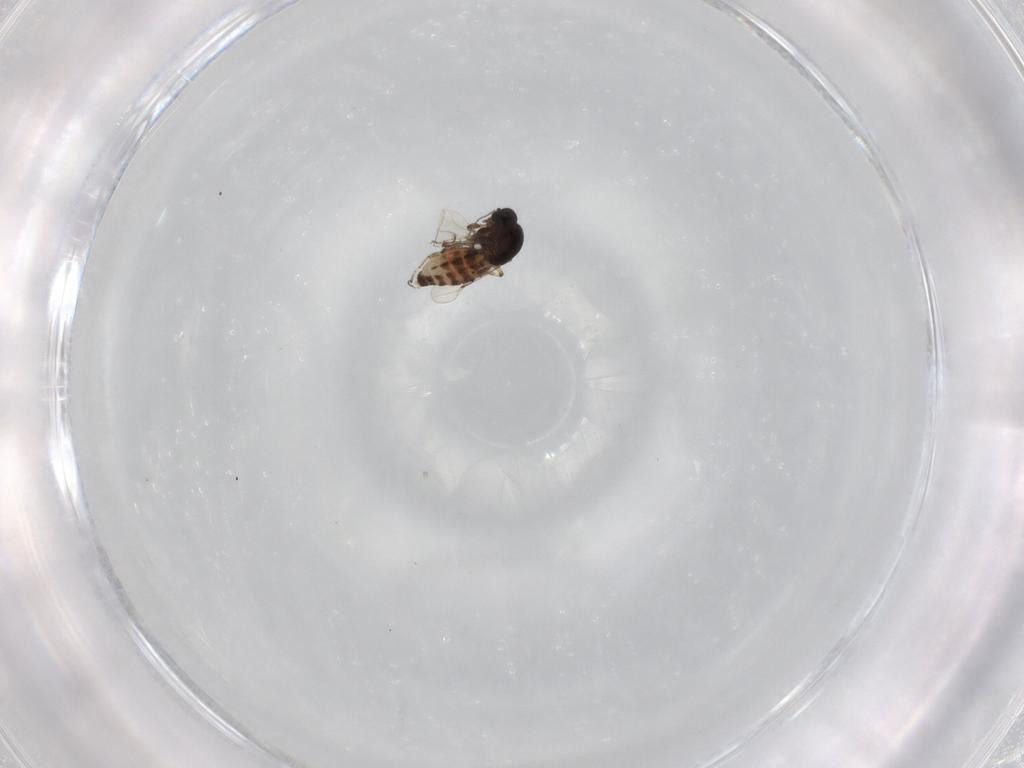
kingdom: Animalia
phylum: Arthropoda
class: Insecta
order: Diptera
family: Ceratopogonidae
